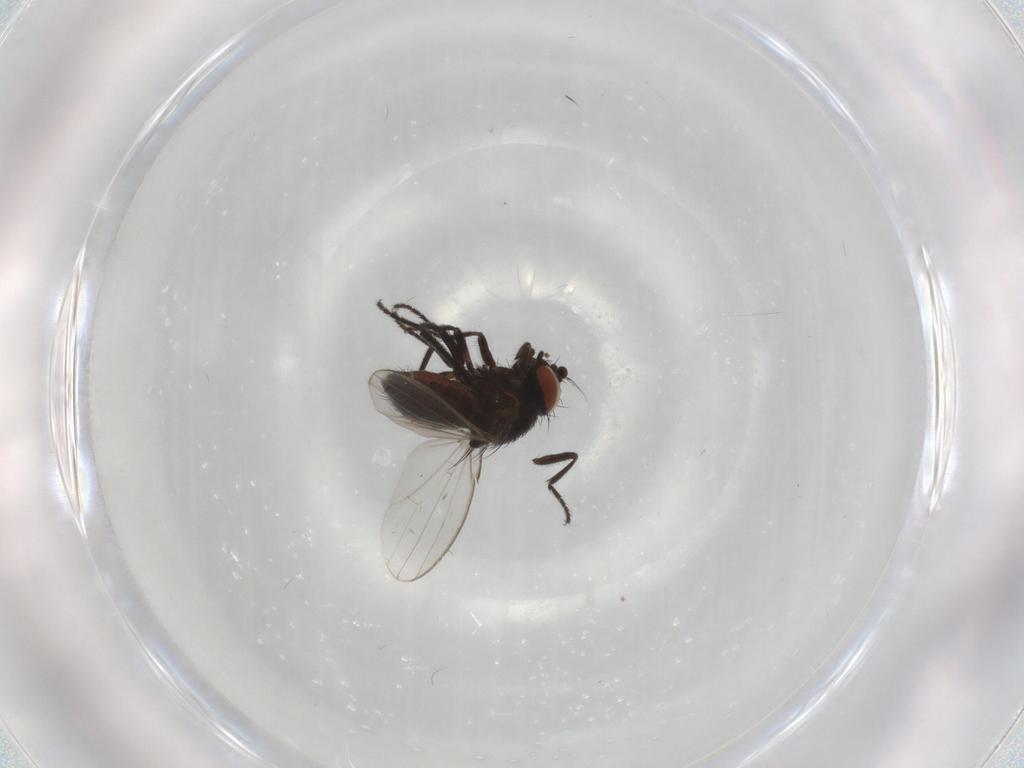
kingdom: Animalia
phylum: Arthropoda
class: Insecta
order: Diptera
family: Milichiidae
